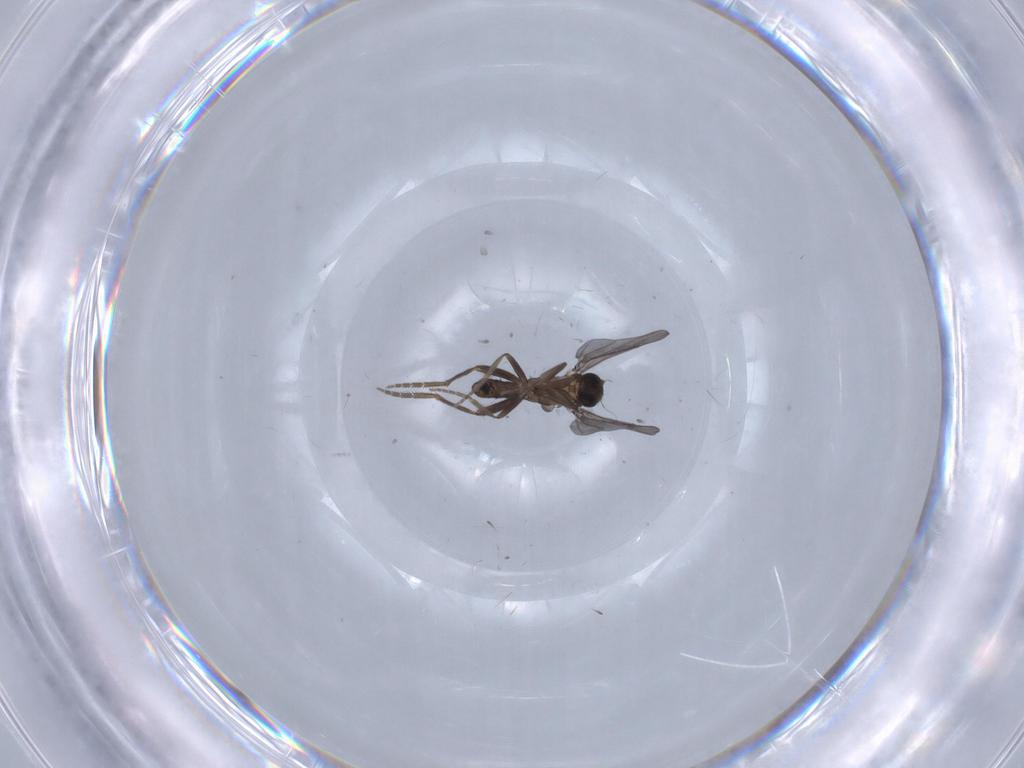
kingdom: Animalia
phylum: Arthropoda
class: Insecta
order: Diptera
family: Phoridae
